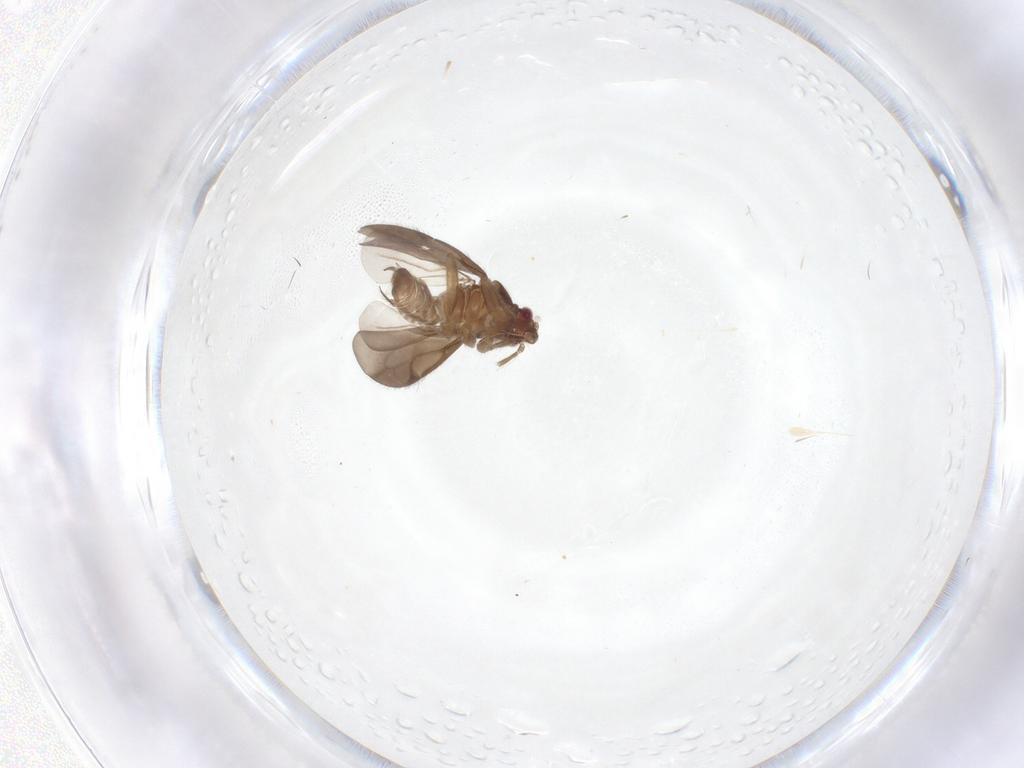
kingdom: Animalia
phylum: Arthropoda
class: Insecta
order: Hemiptera
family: Ceratocombidae
